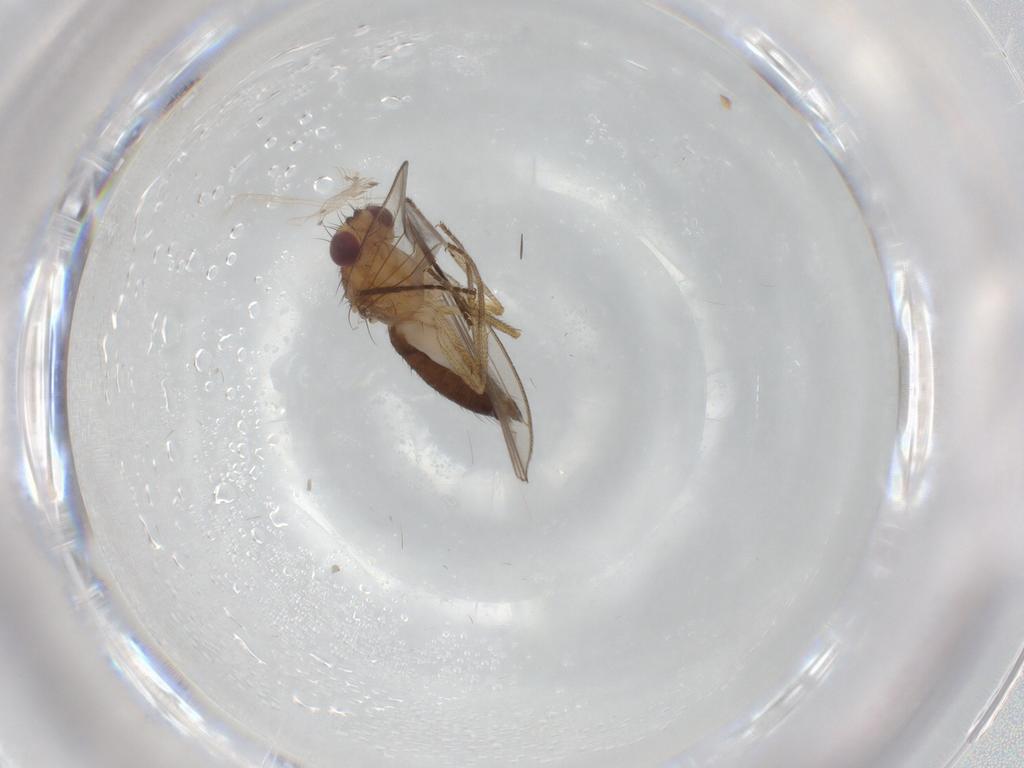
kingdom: Animalia
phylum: Arthropoda
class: Insecta
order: Diptera
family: Drosophilidae
